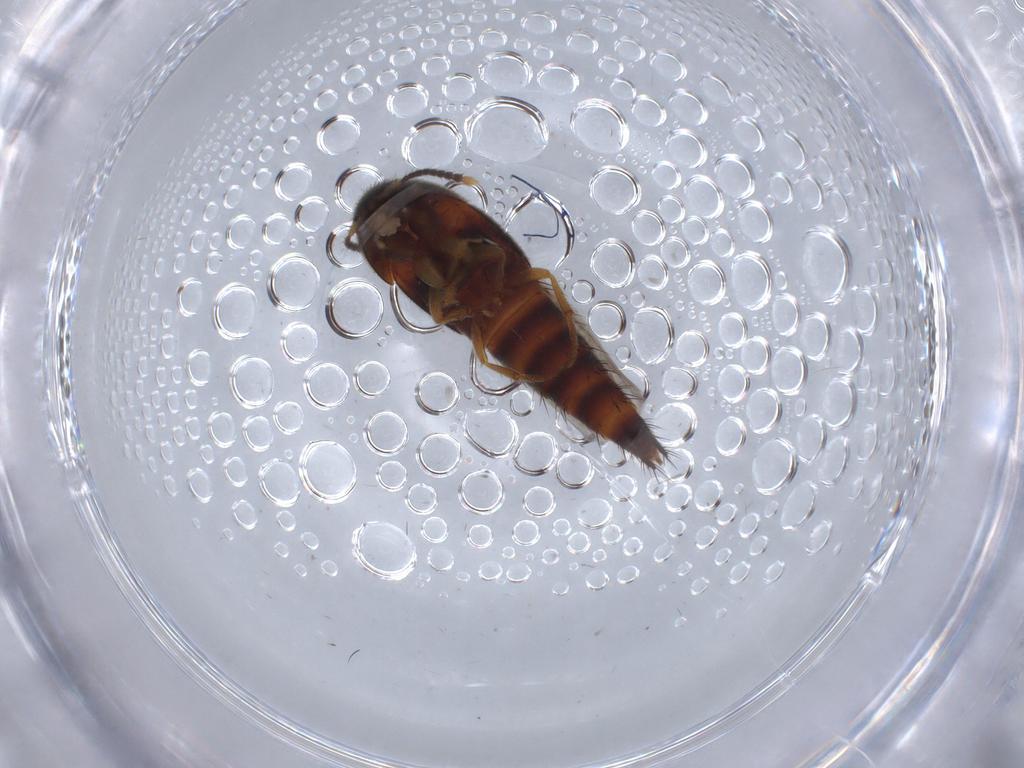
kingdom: Animalia
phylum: Arthropoda
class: Insecta
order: Coleoptera
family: Staphylinidae
